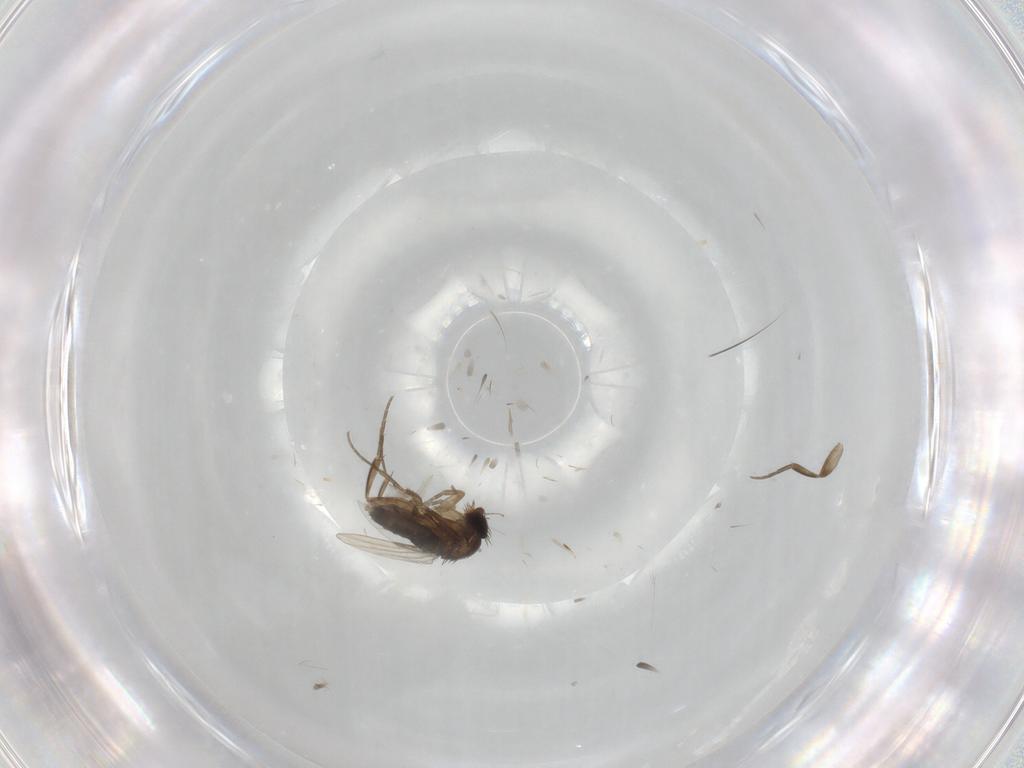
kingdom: Animalia
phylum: Arthropoda
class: Insecta
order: Diptera
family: Phoridae
